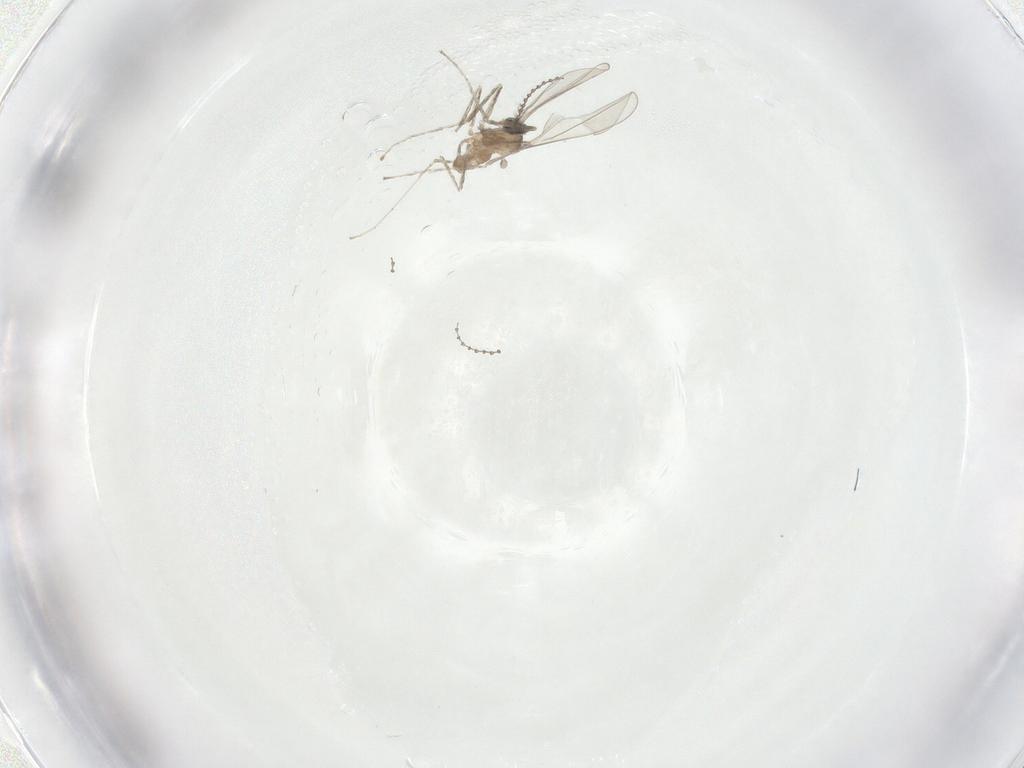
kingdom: Animalia
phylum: Arthropoda
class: Insecta
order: Diptera
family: Cecidomyiidae
